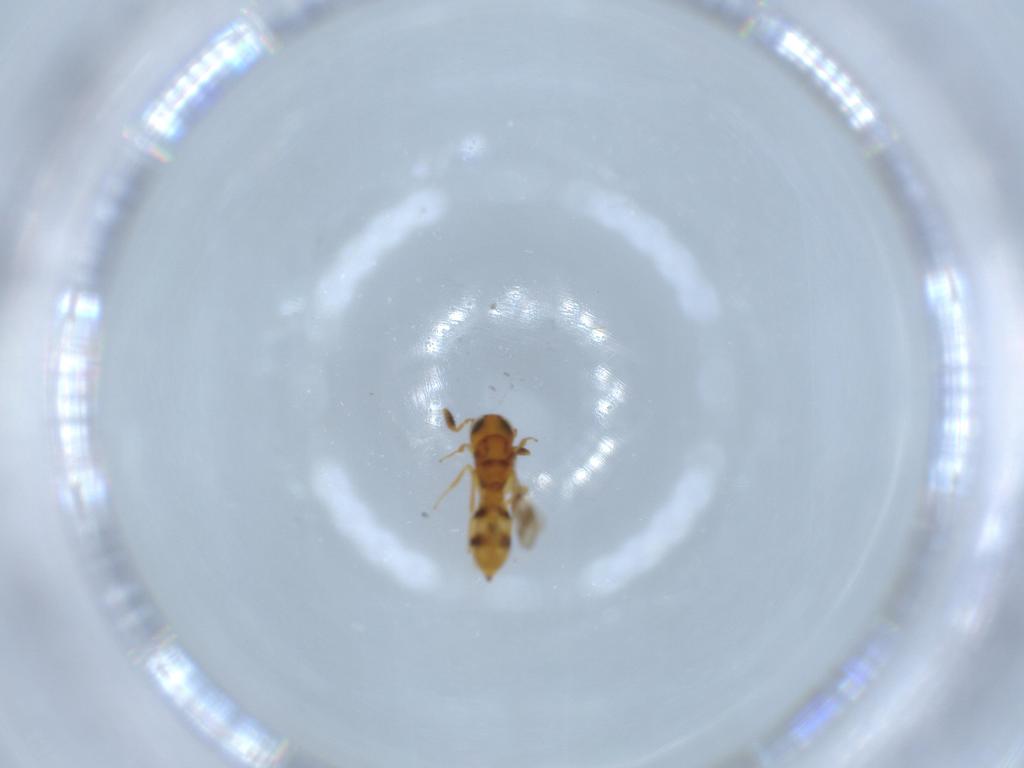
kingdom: Animalia
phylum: Arthropoda
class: Insecta
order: Hymenoptera
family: Scelionidae
